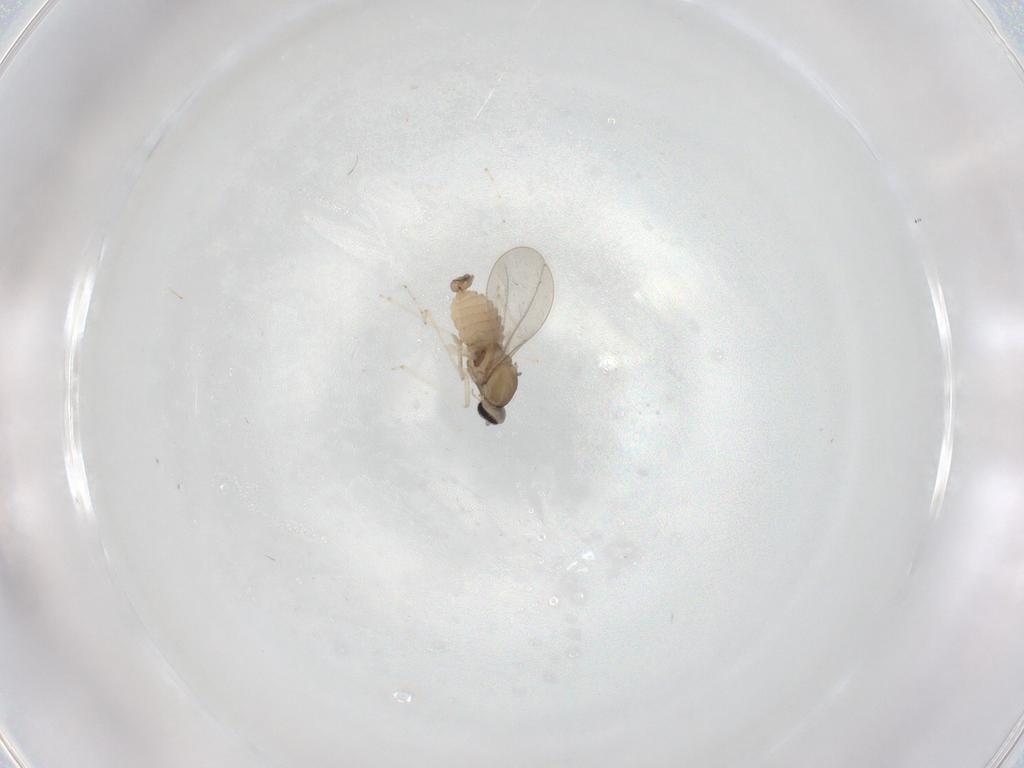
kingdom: Animalia
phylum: Arthropoda
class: Insecta
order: Diptera
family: Cecidomyiidae
